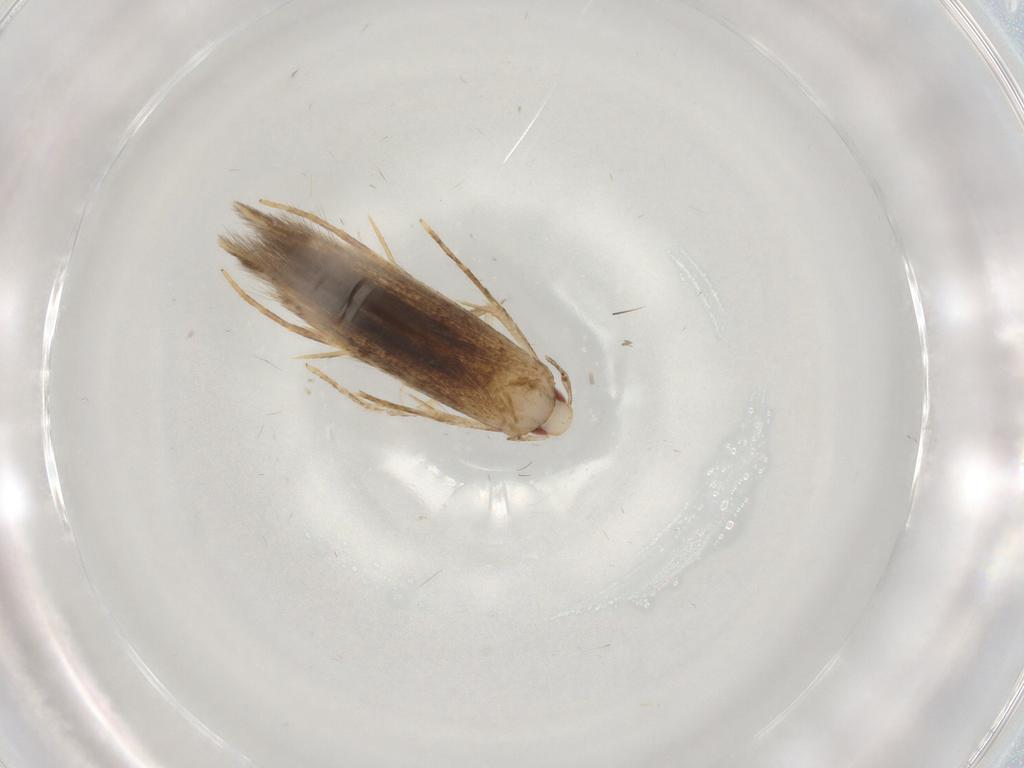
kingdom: Animalia
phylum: Arthropoda
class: Insecta
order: Lepidoptera
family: Gelechiidae
